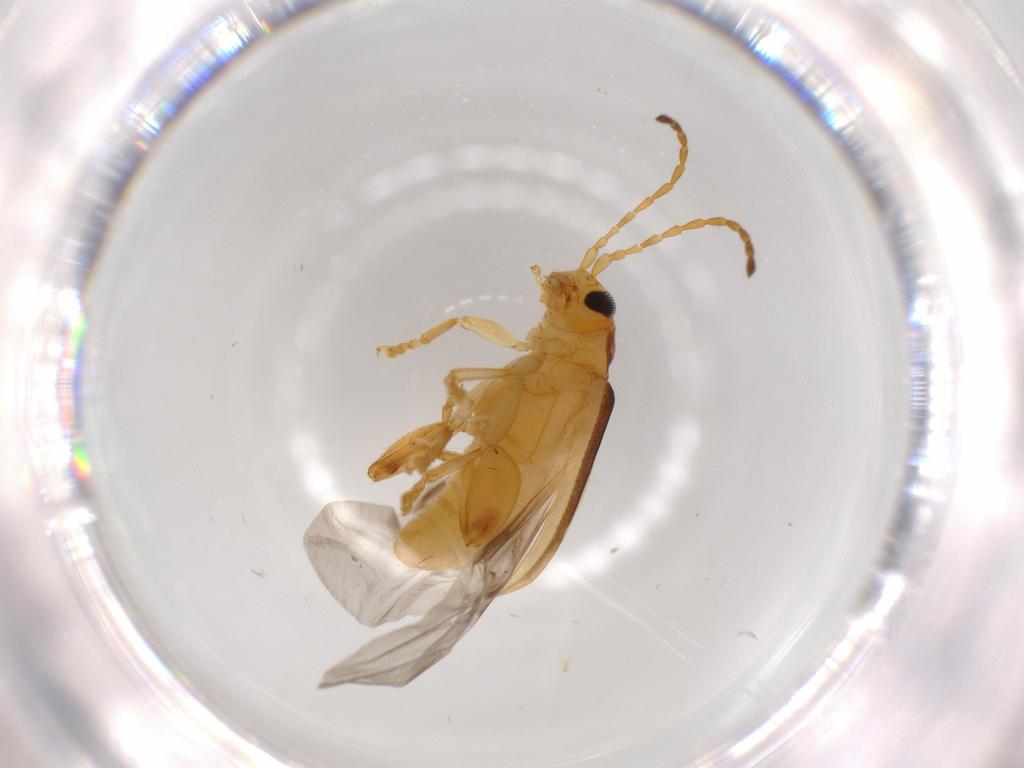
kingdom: Animalia
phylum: Arthropoda
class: Insecta
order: Coleoptera
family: Chrysomelidae
